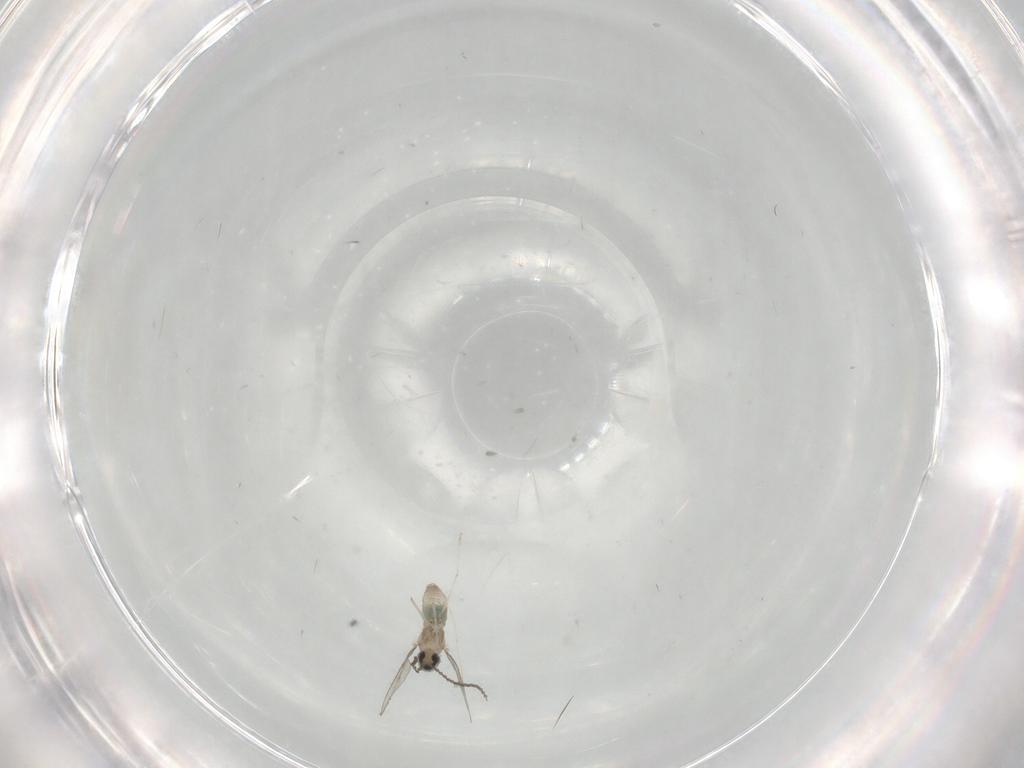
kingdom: Animalia
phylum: Arthropoda
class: Insecta
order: Diptera
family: Cecidomyiidae
